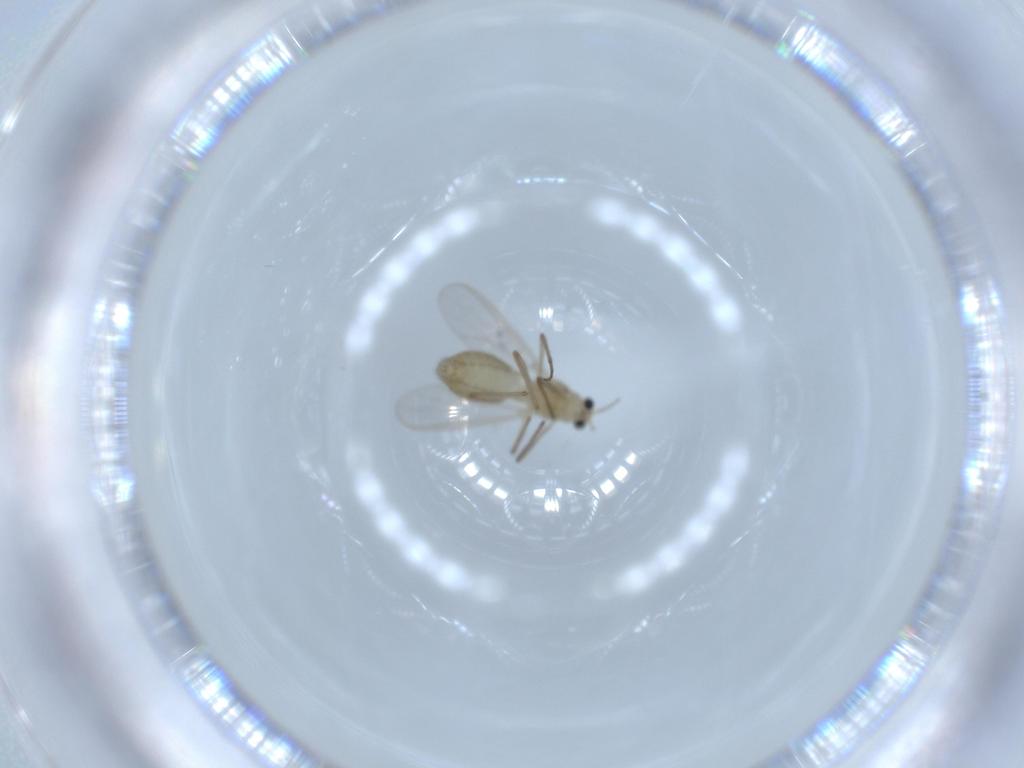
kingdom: Animalia
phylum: Arthropoda
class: Insecta
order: Diptera
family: Chironomidae
